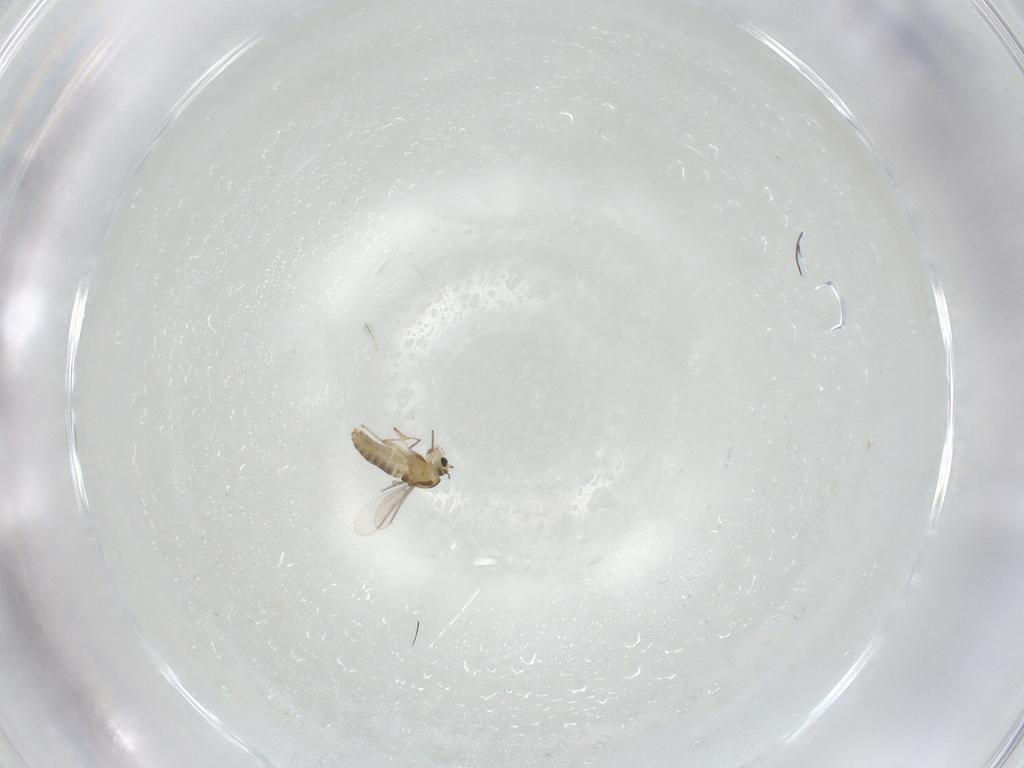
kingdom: Animalia
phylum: Arthropoda
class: Insecta
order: Diptera
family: Chironomidae
